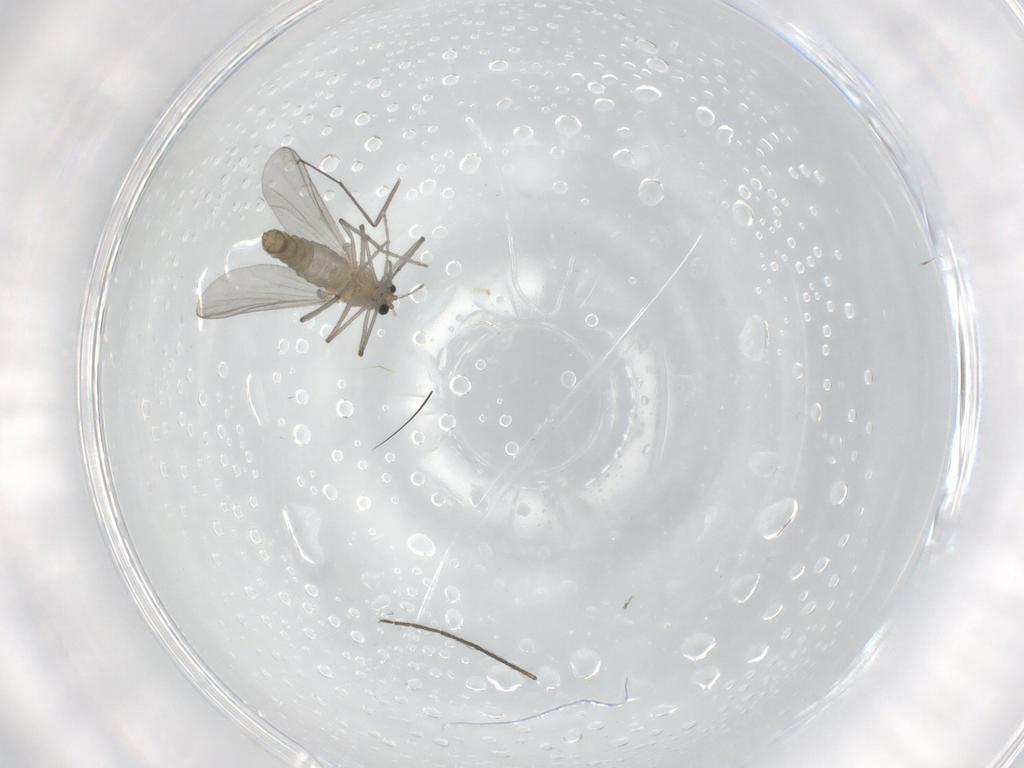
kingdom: Animalia
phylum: Arthropoda
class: Insecta
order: Diptera
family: Chironomidae
